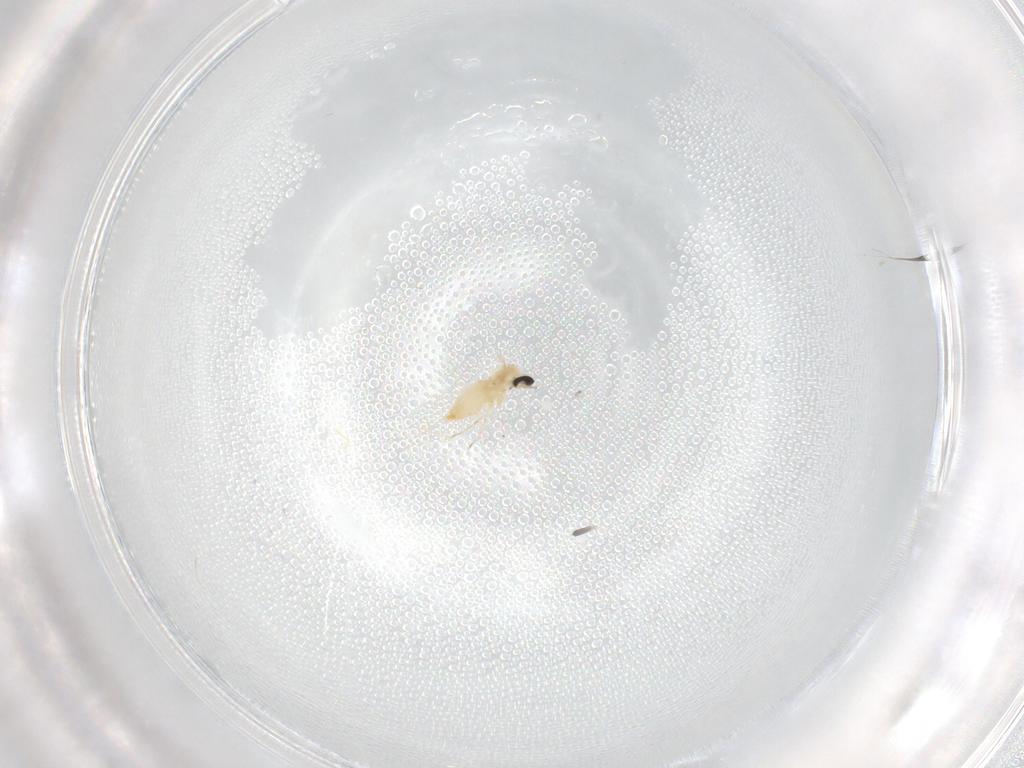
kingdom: Animalia
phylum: Arthropoda
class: Insecta
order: Diptera
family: Cecidomyiidae
